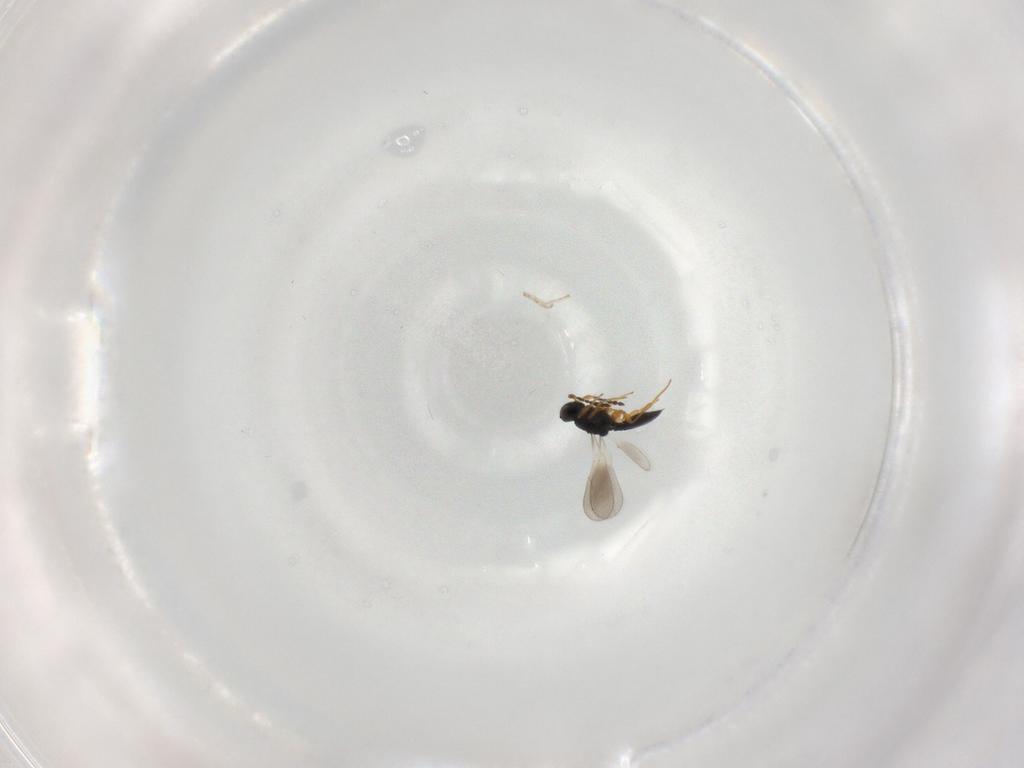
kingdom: Animalia
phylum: Arthropoda
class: Insecta
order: Hymenoptera
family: Platygastridae
